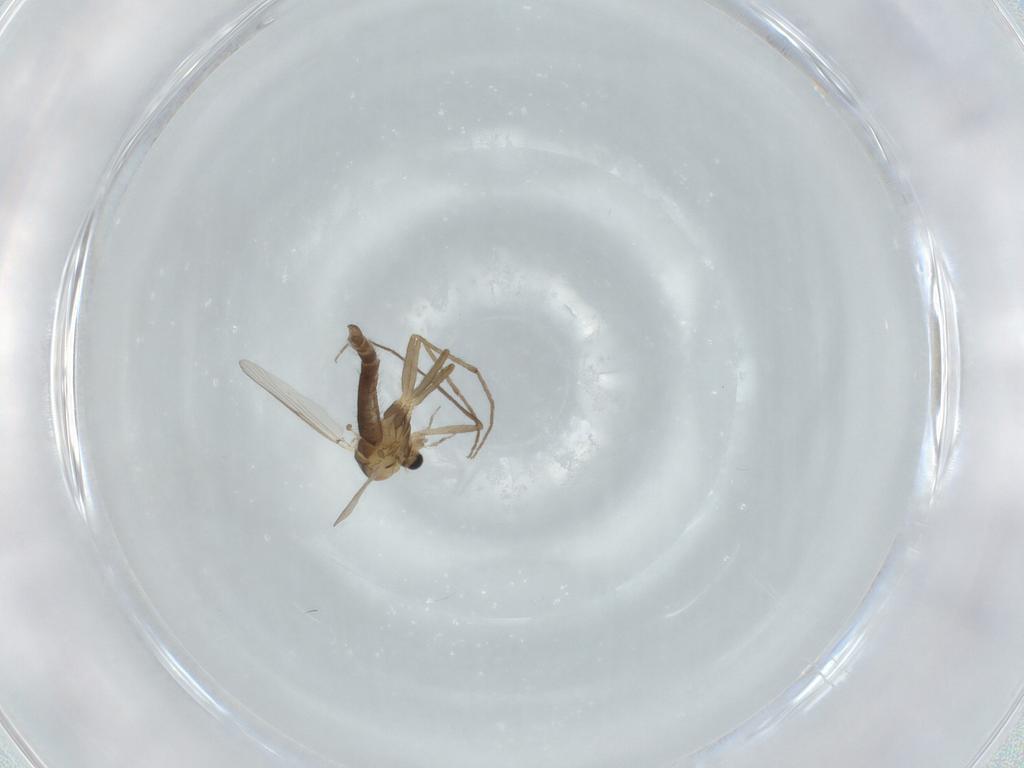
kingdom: Animalia
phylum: Arthropoda
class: Insecta
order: Diptera
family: Chironomidae
